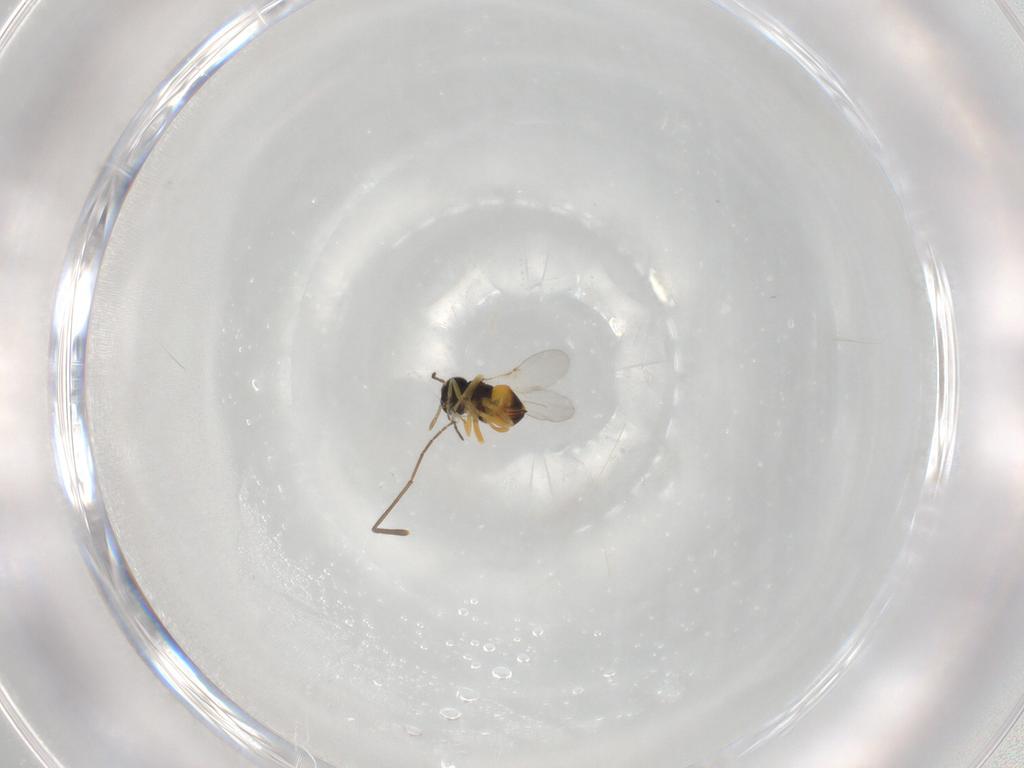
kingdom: Animalia
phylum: Arthropoda
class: Insecta
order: Hymenoptera
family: Encyrtidae
